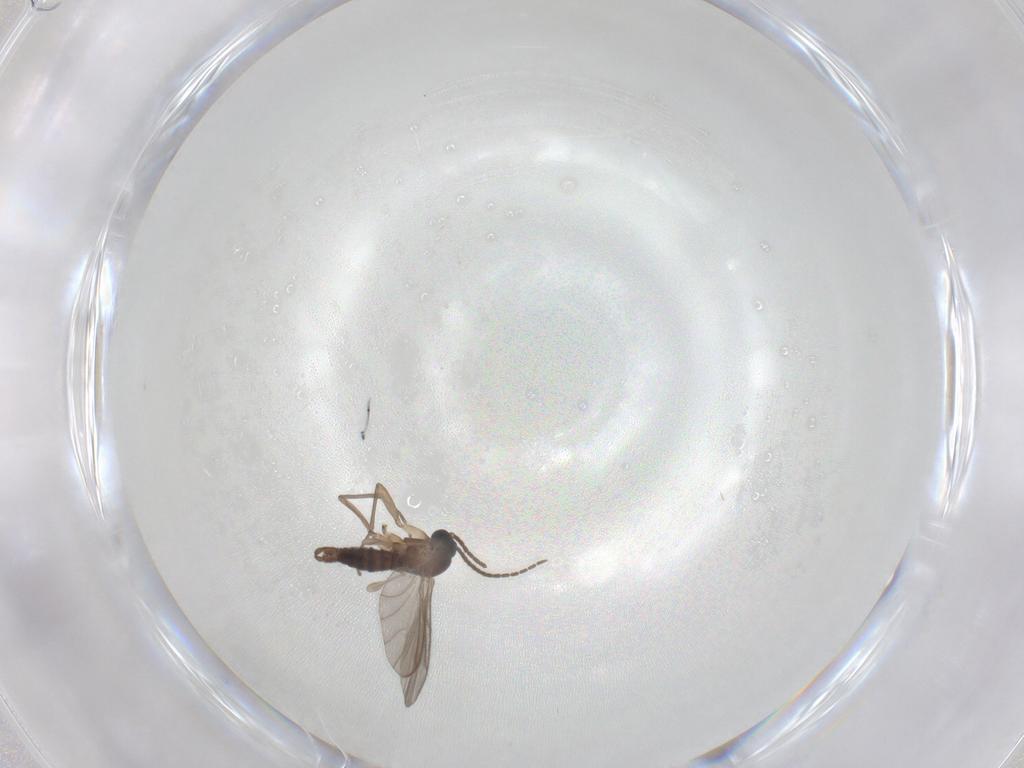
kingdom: Animalia
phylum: Arthropoda
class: Insecta
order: Diptera
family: Sciaridae
